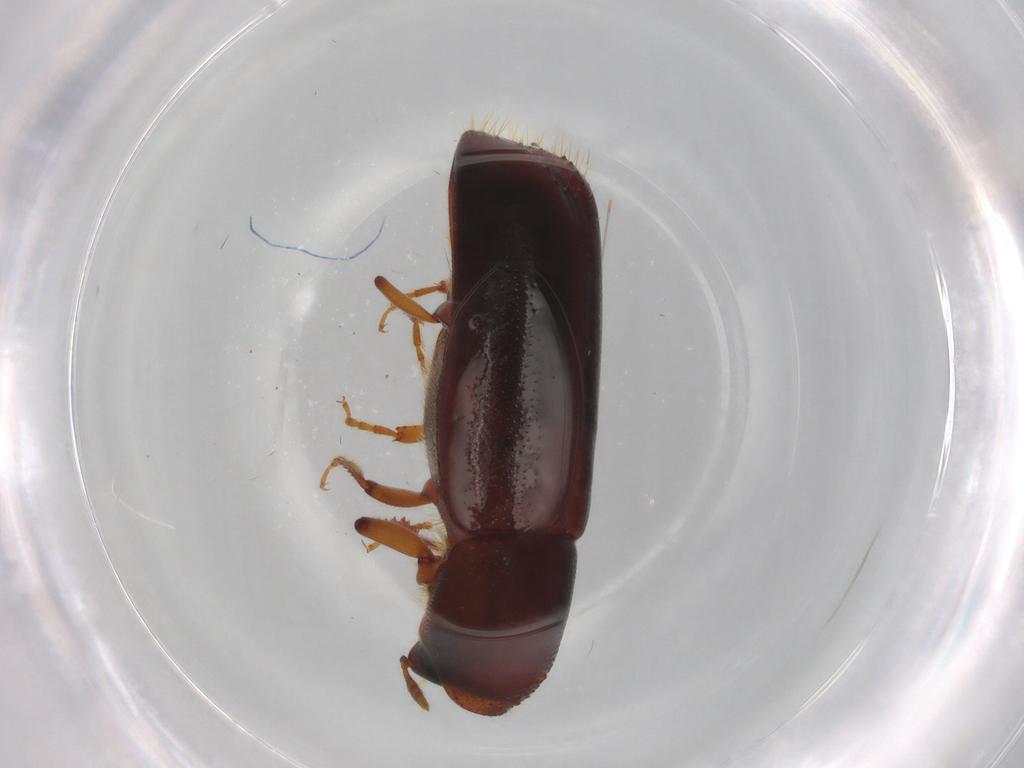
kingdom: Animalia
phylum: Arthropoda
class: Insecta
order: Coleoptera
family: Curculionidae
